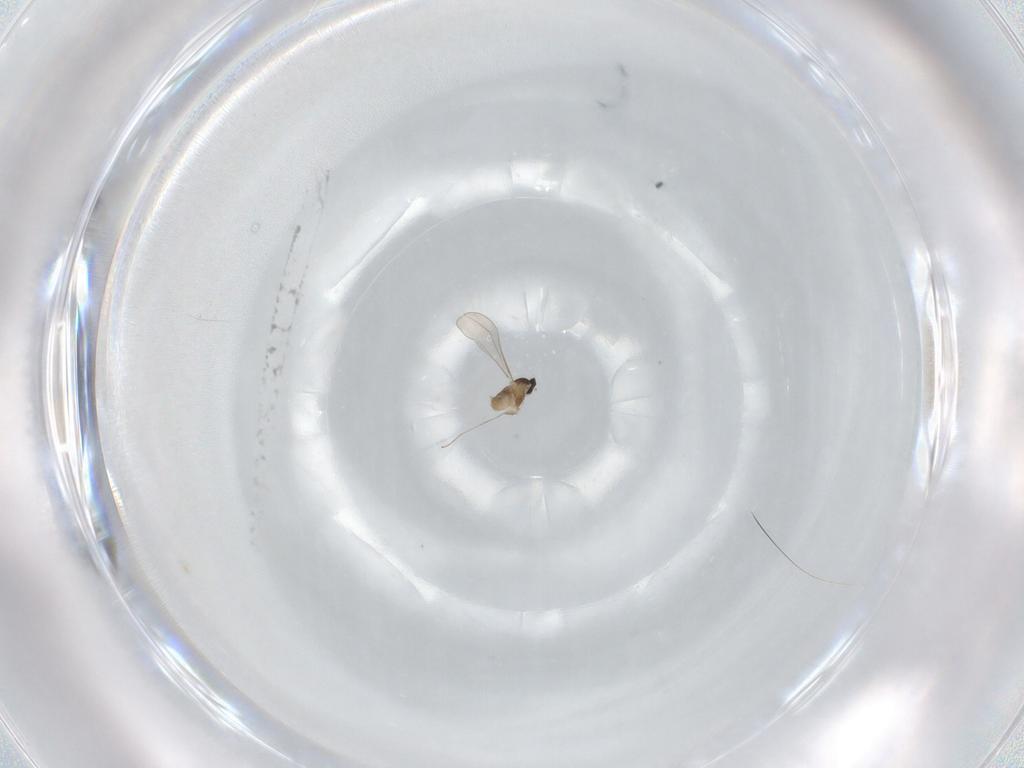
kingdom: Animalia
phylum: Arthropoda
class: Insecta
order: Diptera
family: Cecidomyiidae
